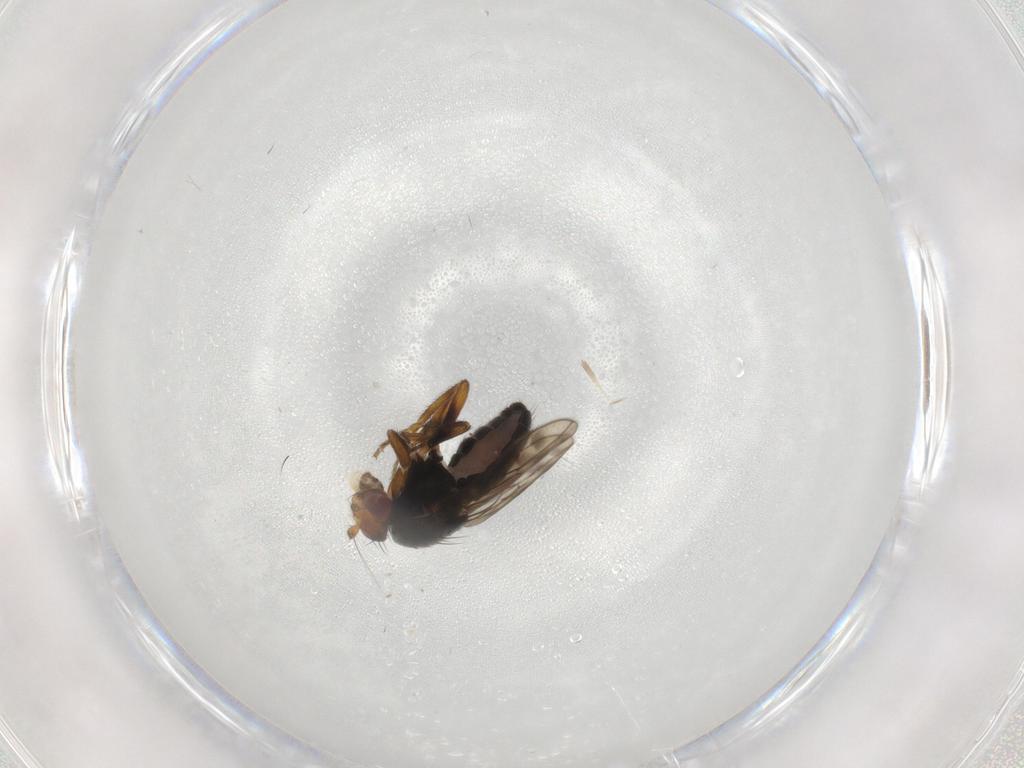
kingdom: Animalia
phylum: Arthropoda
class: Insecta
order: Diptera
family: Sphaeroceridae
